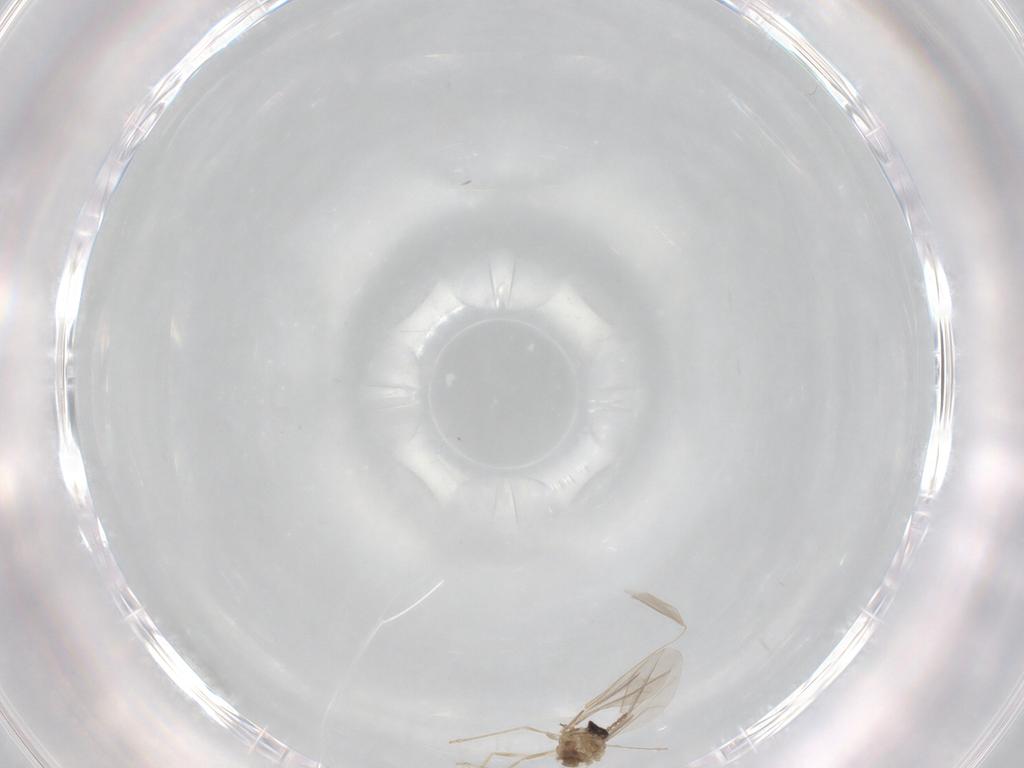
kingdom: Animalia
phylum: Arthropoda
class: Insecta
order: Diptera
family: Cecidomyiidae
